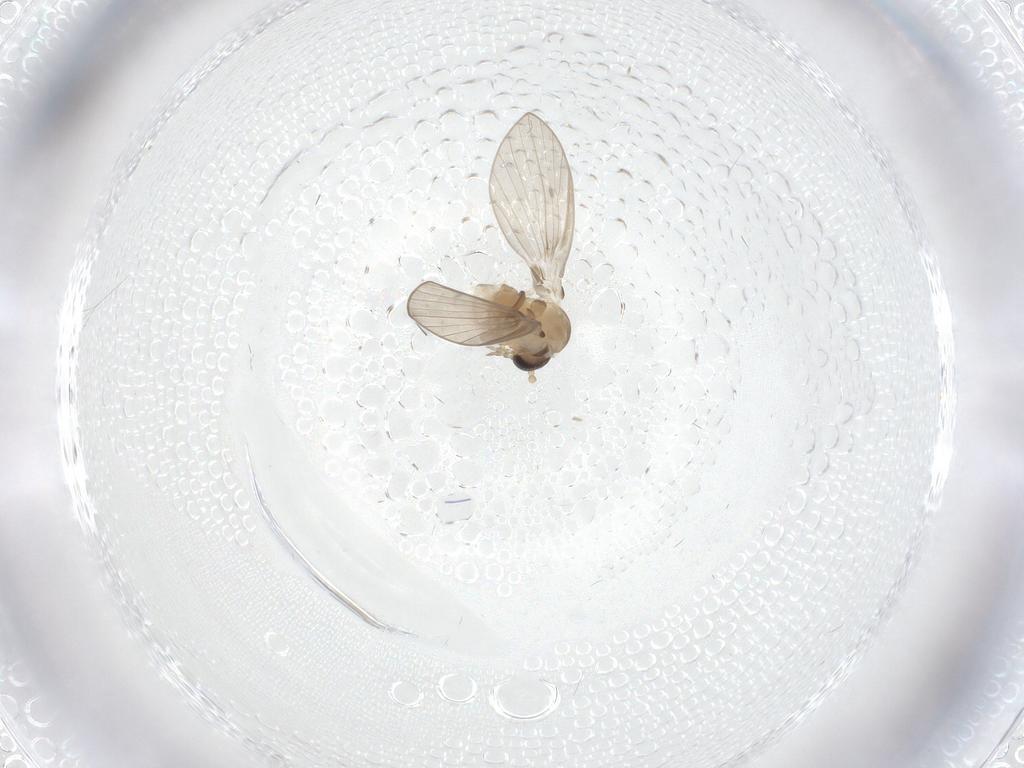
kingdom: Animalia
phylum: Arthropoda
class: Insecta
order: Diptera
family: Psychodidae
